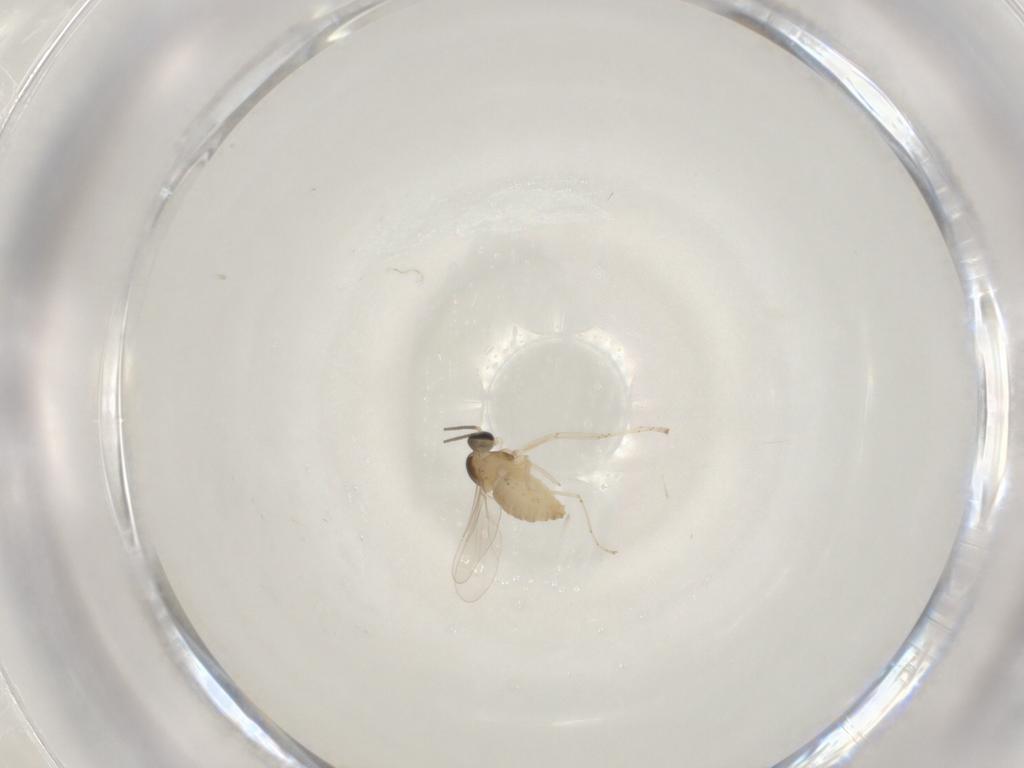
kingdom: Animalia
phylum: Arthropoda
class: Insecta
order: Diptera
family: Cecidomyiidae
